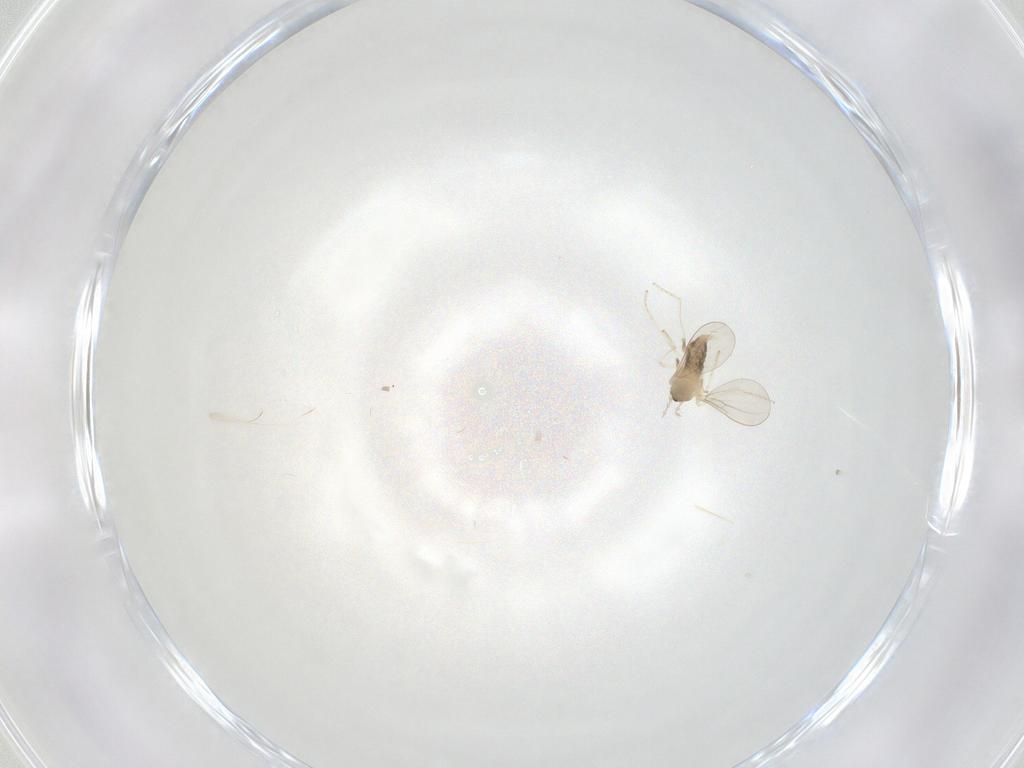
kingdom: Animalia
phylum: Arthropoda
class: Insecta
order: Diptera
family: Cecidomyiidae
